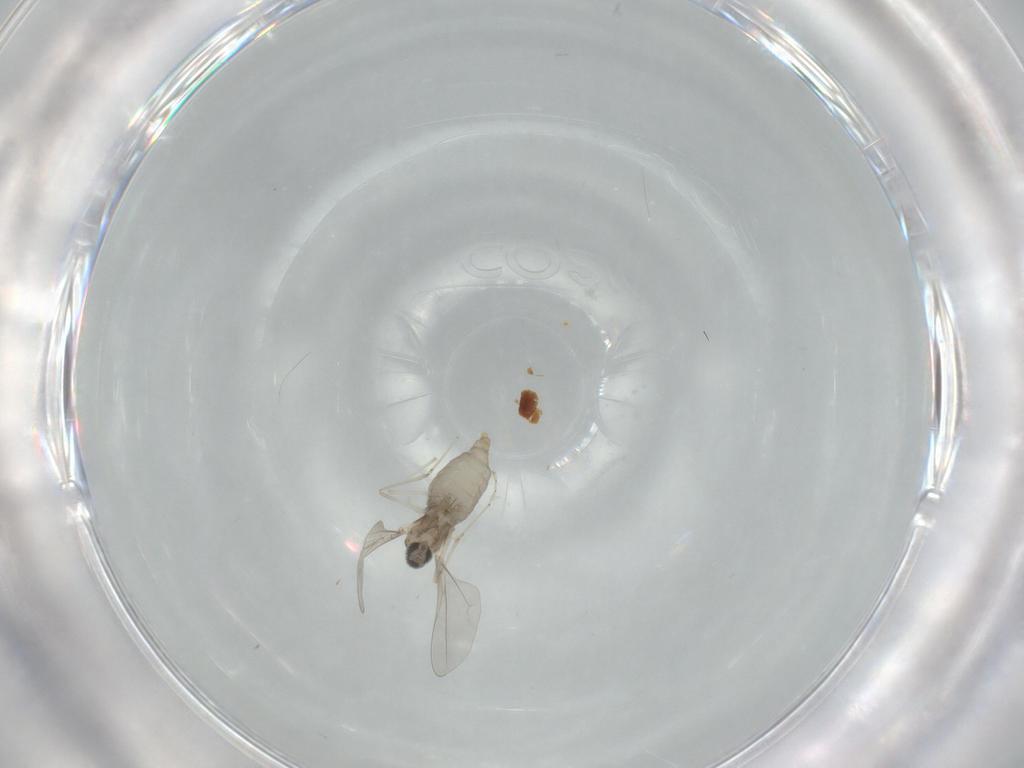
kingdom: Animalia
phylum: Arthropoda
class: Insecta
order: Diptera
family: Cecidomyiidae
